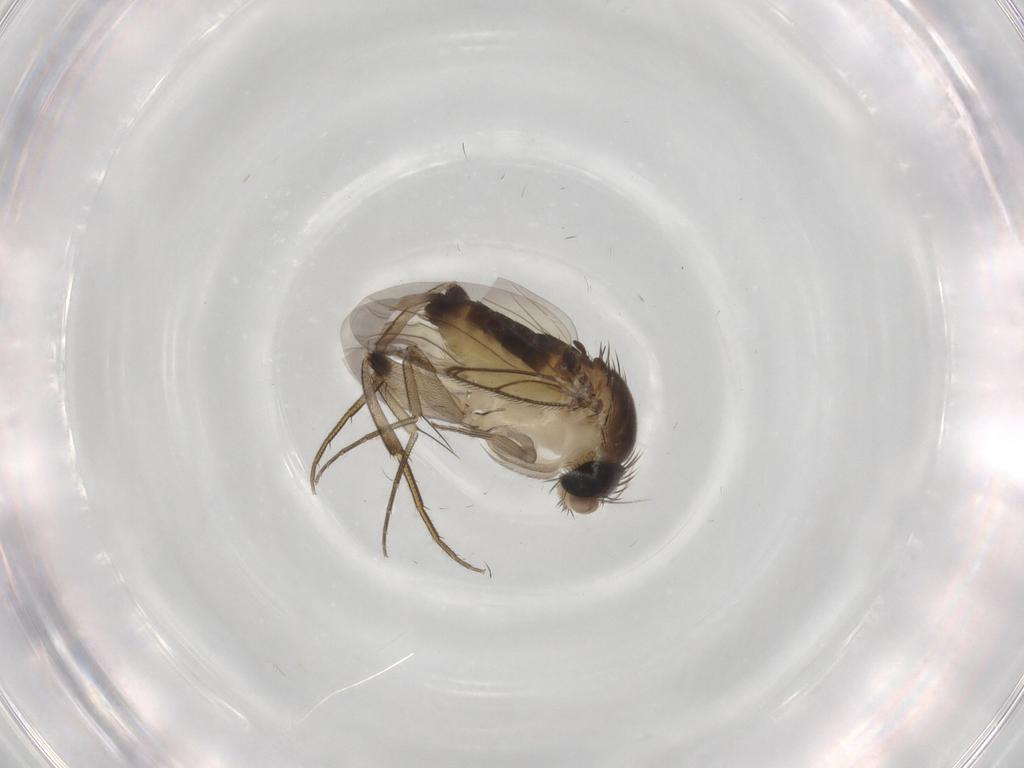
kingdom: Animalia
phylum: Arthropoda
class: Insecta
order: Diptera
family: Phoridae
